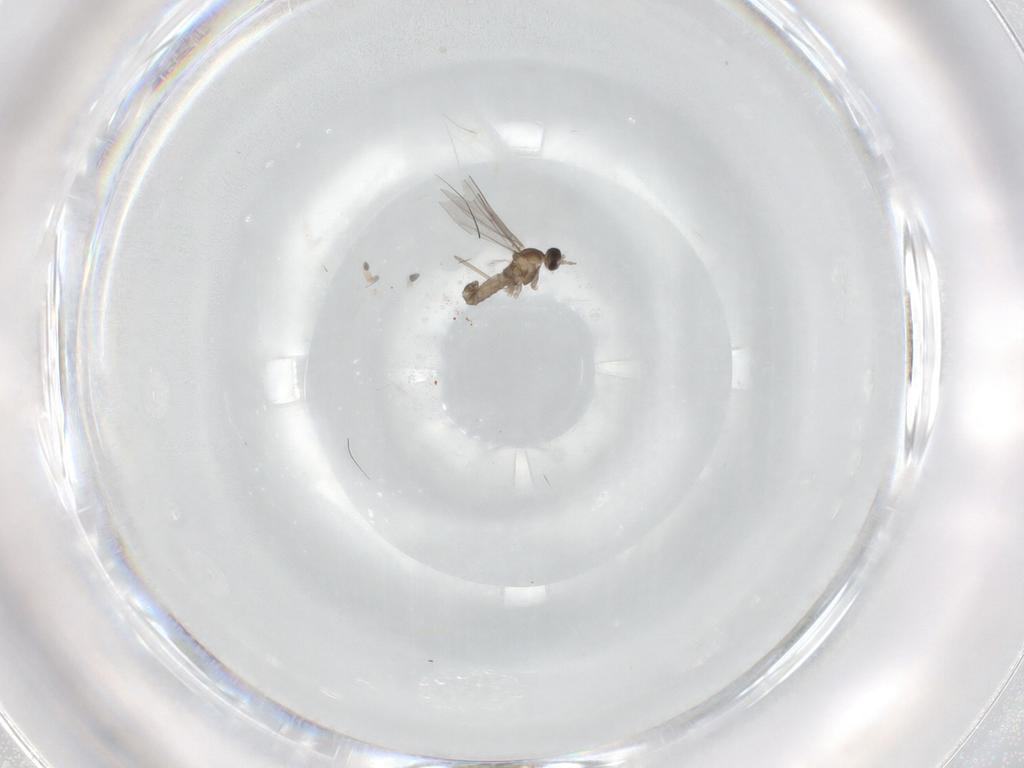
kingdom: Animalia
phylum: Arthropoda
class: Insecta
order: Diptera
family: Cecidomyiidae
